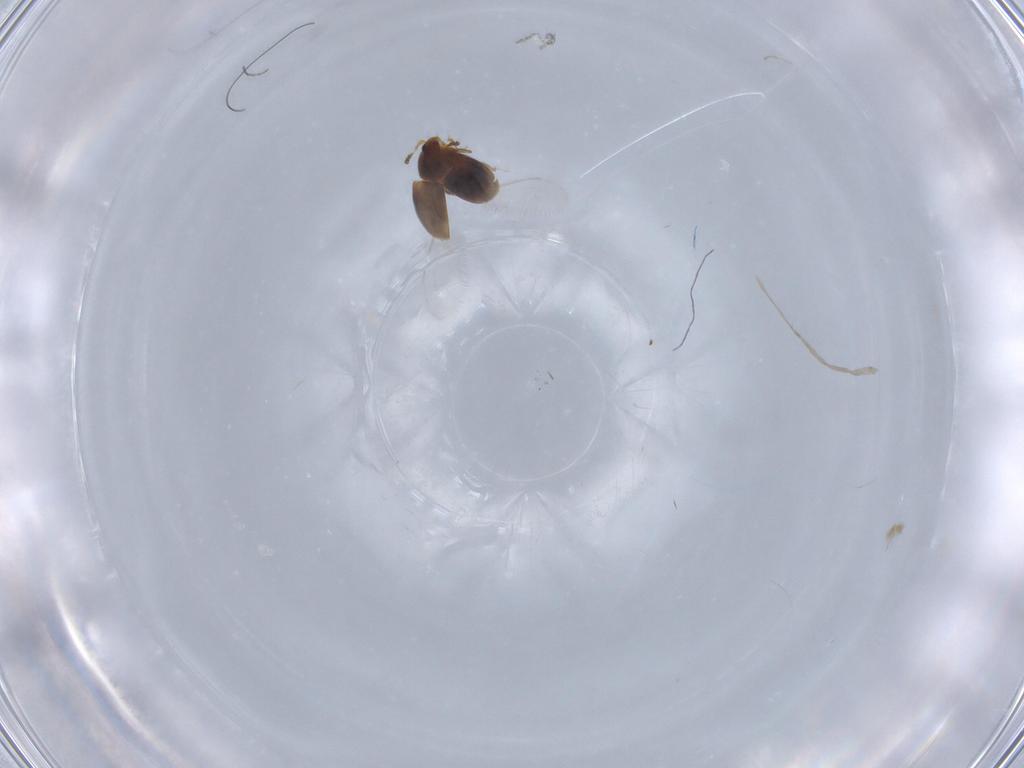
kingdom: Animalia
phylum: Arthropoda
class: Insecta
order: Coleoptera
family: Corylophidae
